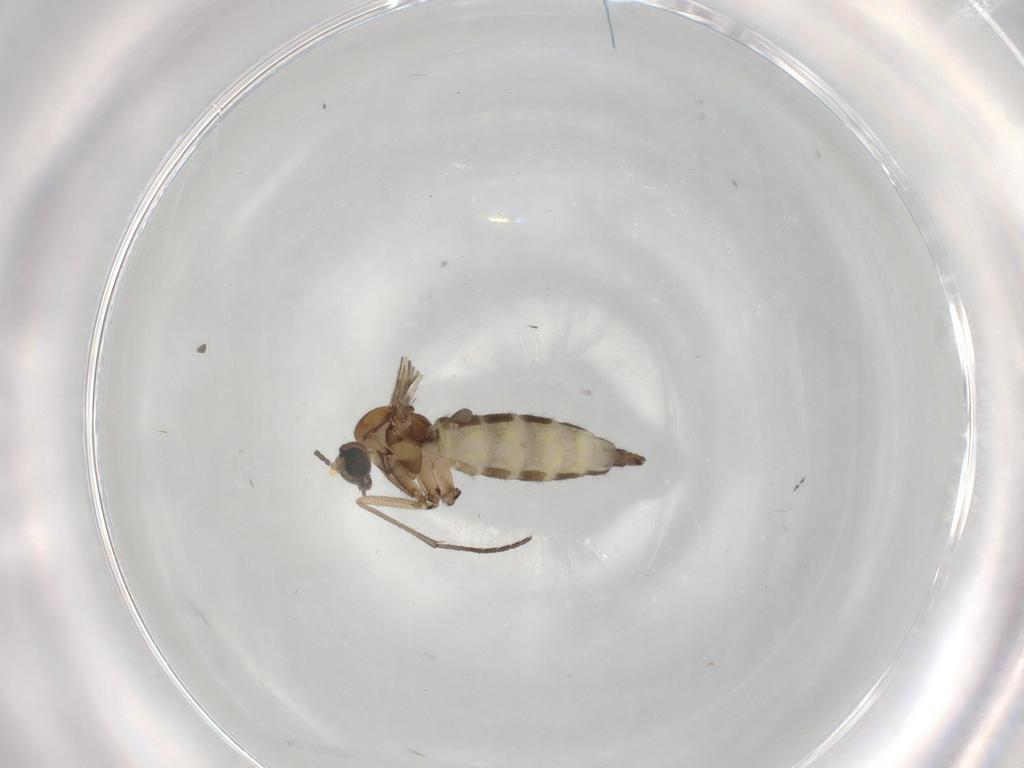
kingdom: Animalia
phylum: Arthropoda
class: Insecta
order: Diptera
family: Sciaridae
